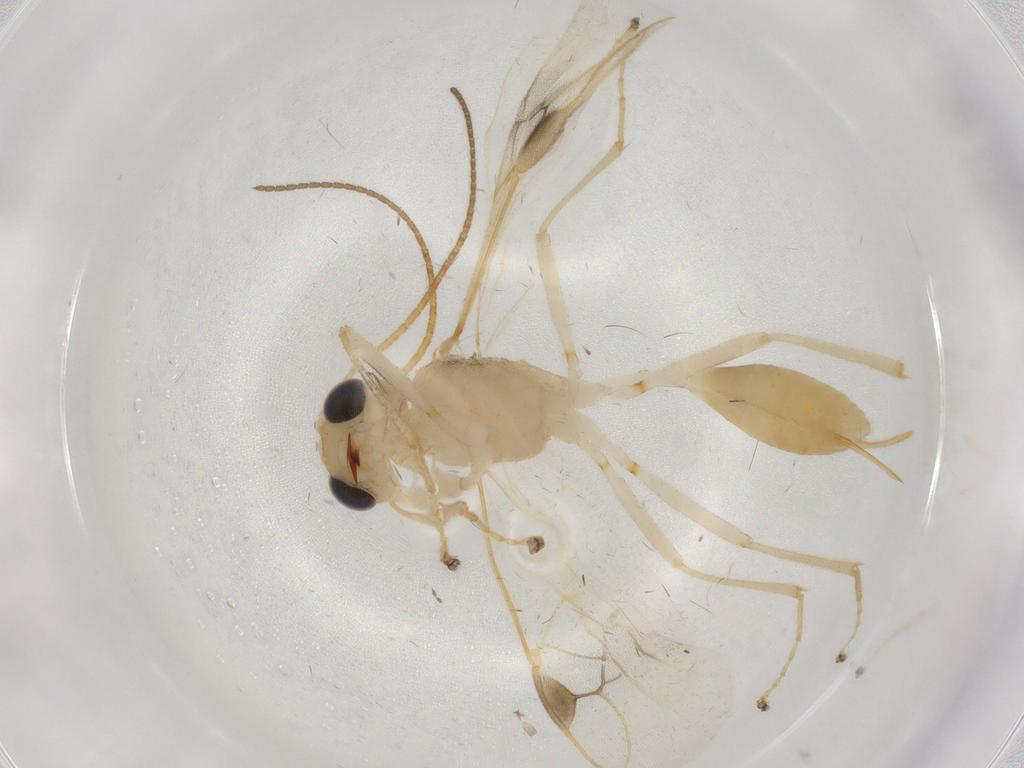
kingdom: Animalia
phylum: Arthropoda
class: Insecta
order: Hymenoptera
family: Braconidae
